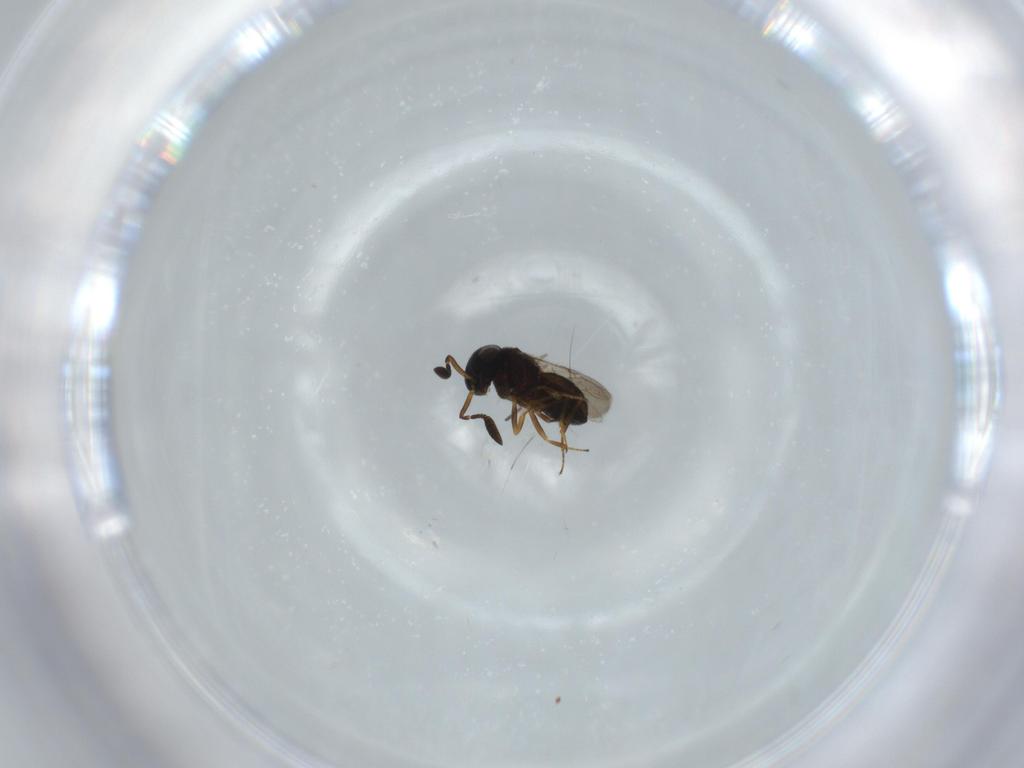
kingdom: Animalia
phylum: Arthropoda
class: Insecta
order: Hymenoptera
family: Scelionidae
